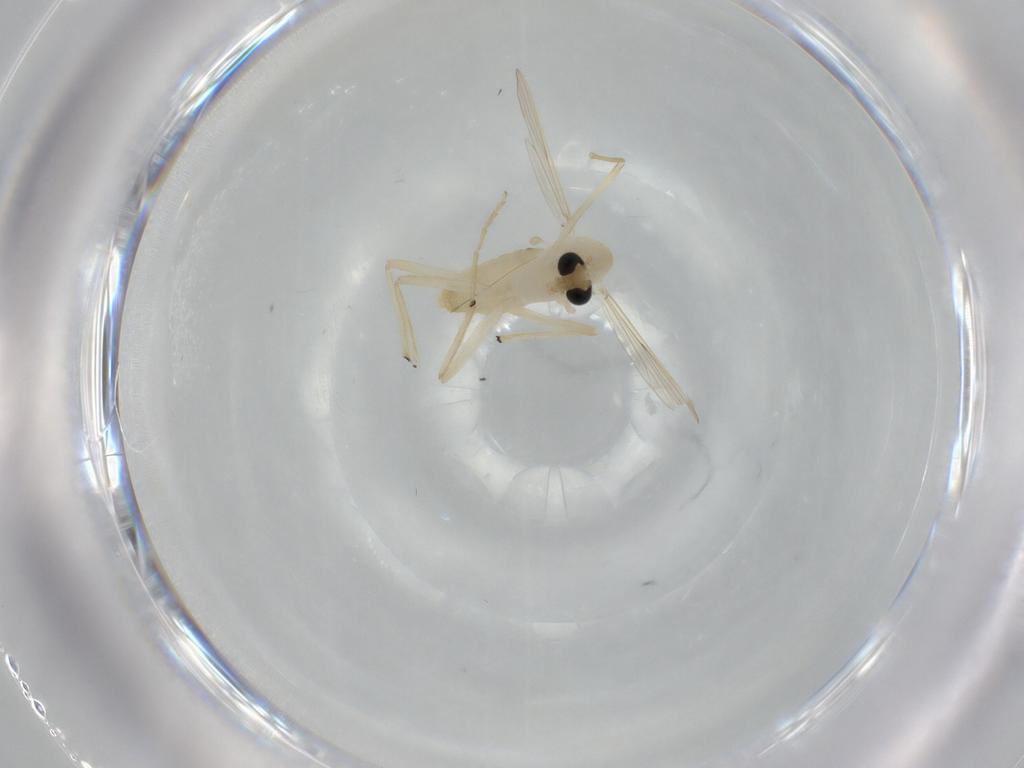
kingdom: Animalia
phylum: Arthropoda
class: Insecta
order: Diptera
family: Chironomidae
